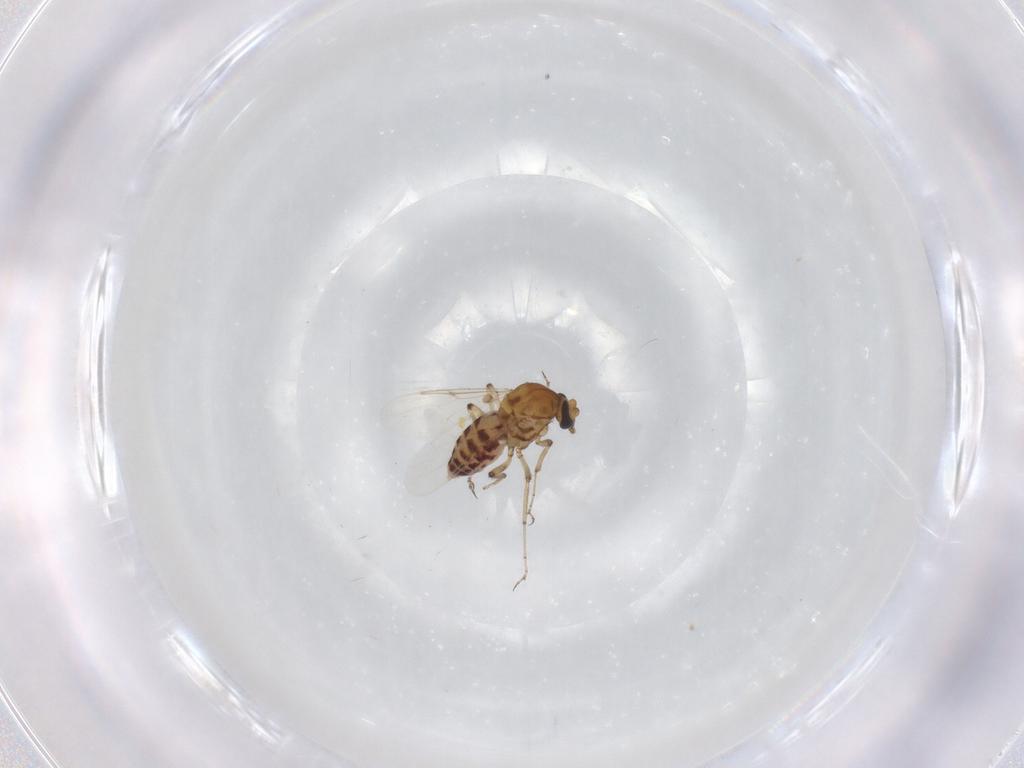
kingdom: Animalia
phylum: Arthropoda
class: Insecta
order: Diptera
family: Ceratopogonidae
